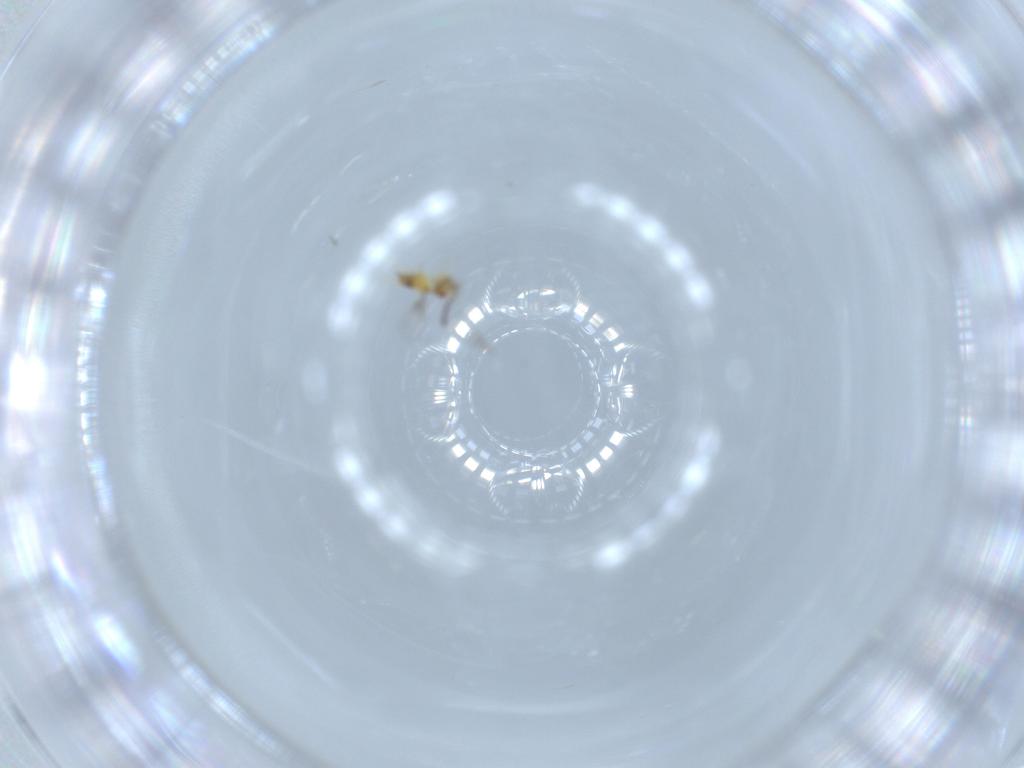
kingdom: Animalia
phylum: Arthropoda
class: Insecta
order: Hymenoptera
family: Trichogrammatidae
